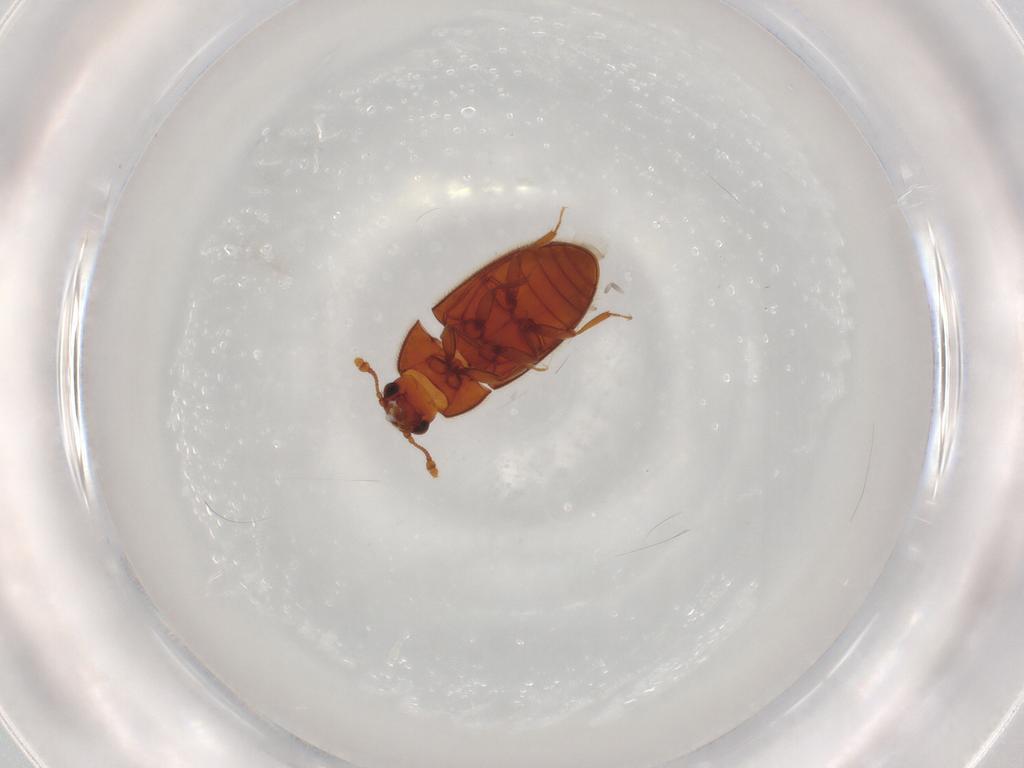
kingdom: Animalia
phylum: Arthropoda
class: Insecta
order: Coleoptera
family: Biphyllidae
